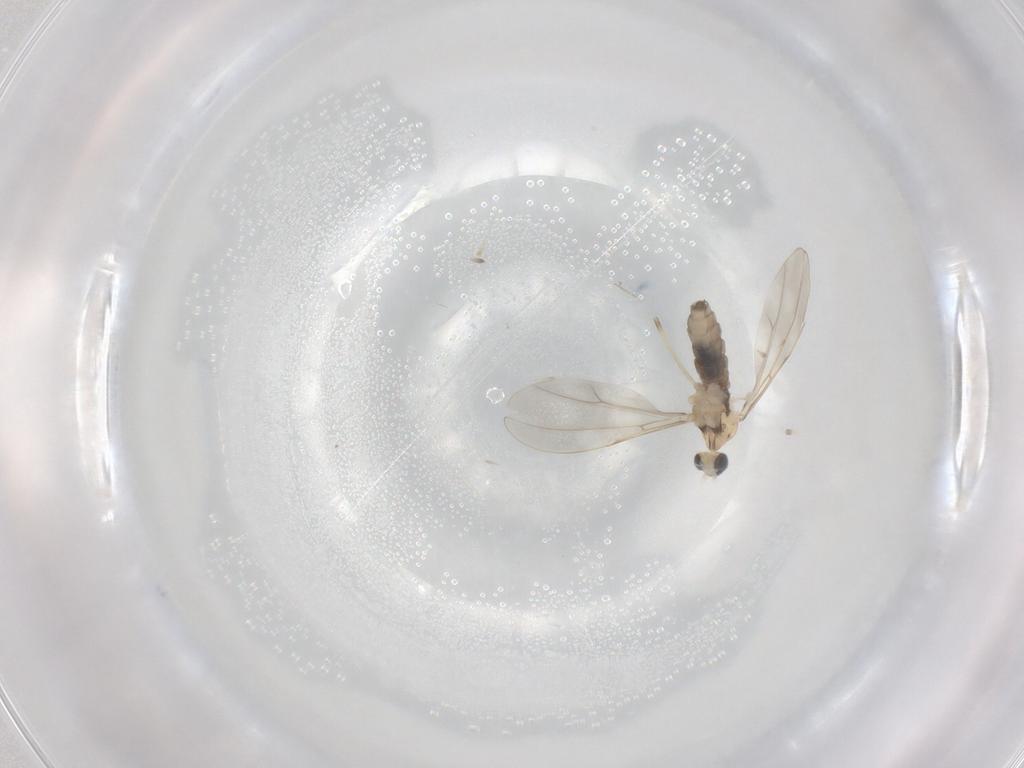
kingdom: Animalia
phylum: Arthropoda
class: Insecta
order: Diptera
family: Cecidomyiidae
